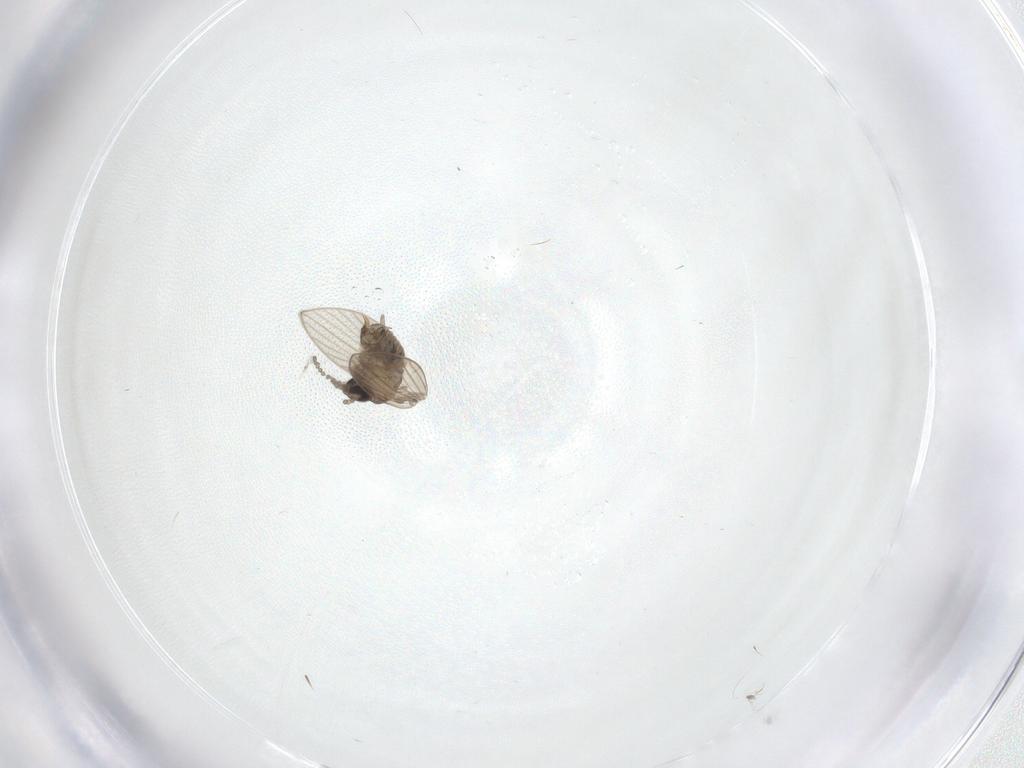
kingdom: Animalia
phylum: Arthropoda
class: Insecta
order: Diptera
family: Psychodidae
